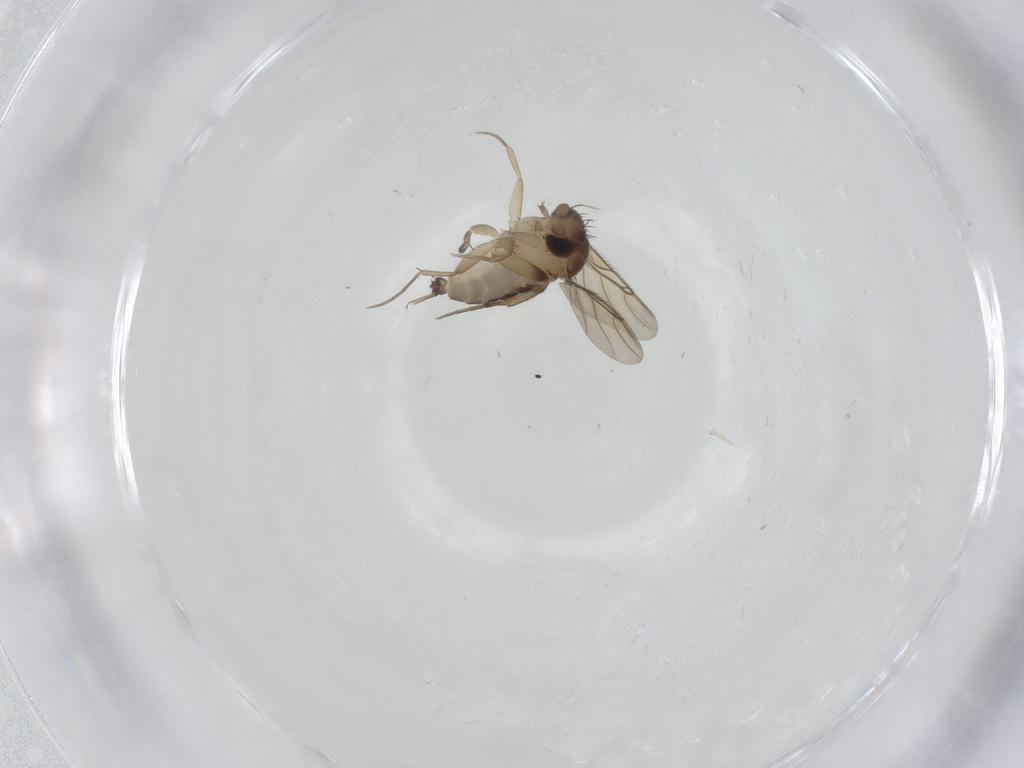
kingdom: Animalia
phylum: Arthropoda
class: Insecta
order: Diptera
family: Phoridae
